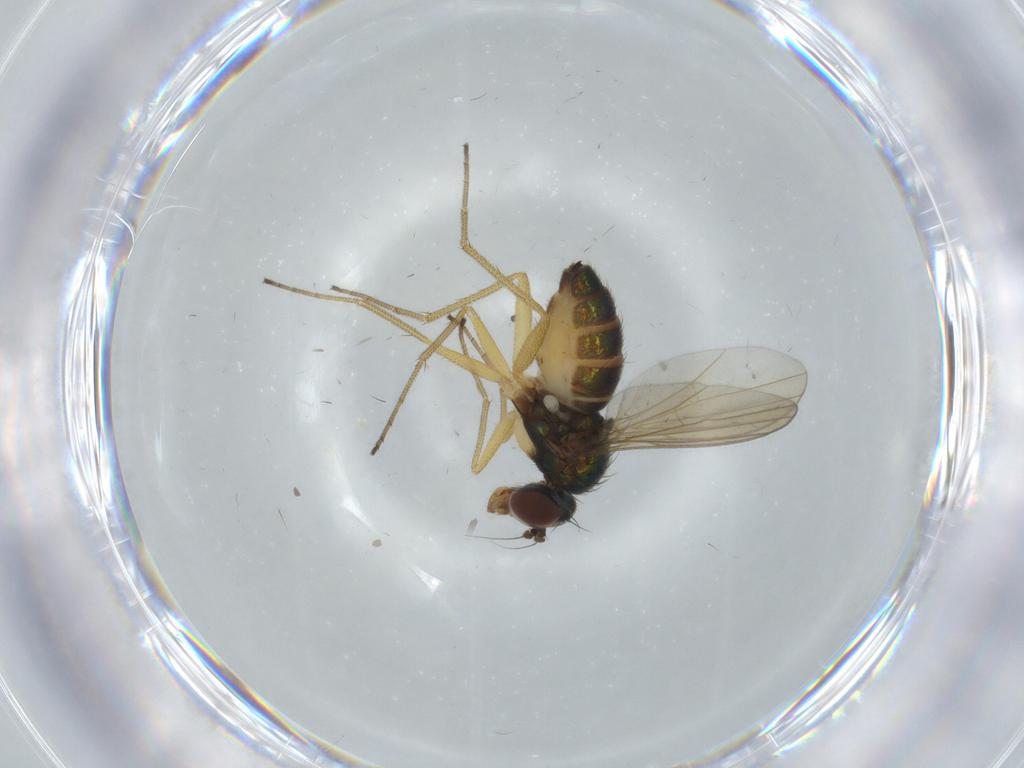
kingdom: Animalia
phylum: Arthropoda
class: Insecta
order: Diptera
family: Dolichopodidae
